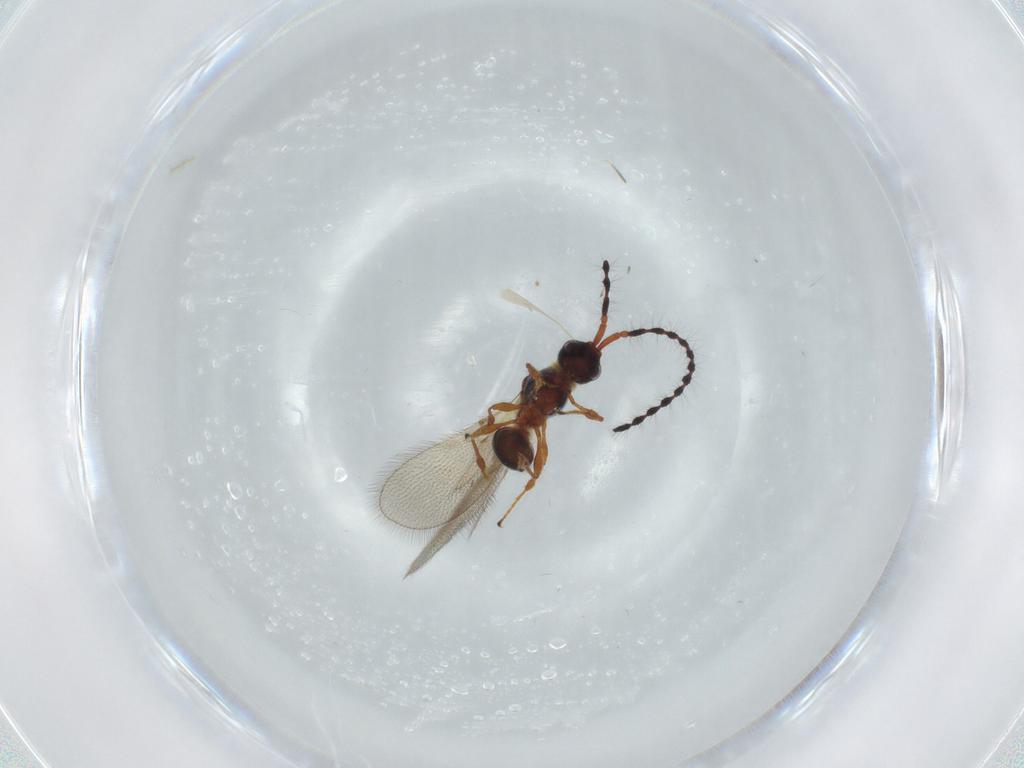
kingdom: Animalia
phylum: Arthropoda
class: Insecta
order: Hymenoptera
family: Diapriidae
